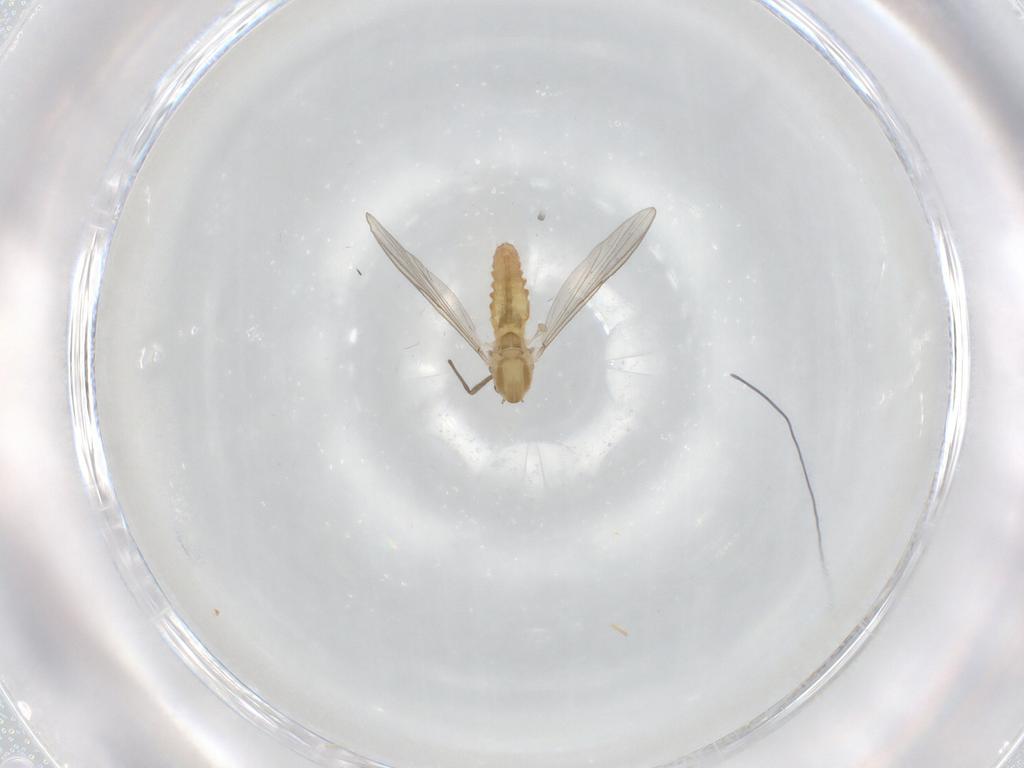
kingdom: Animalia
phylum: Arthropoda
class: Insecta
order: Diptera
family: Chironomidae
